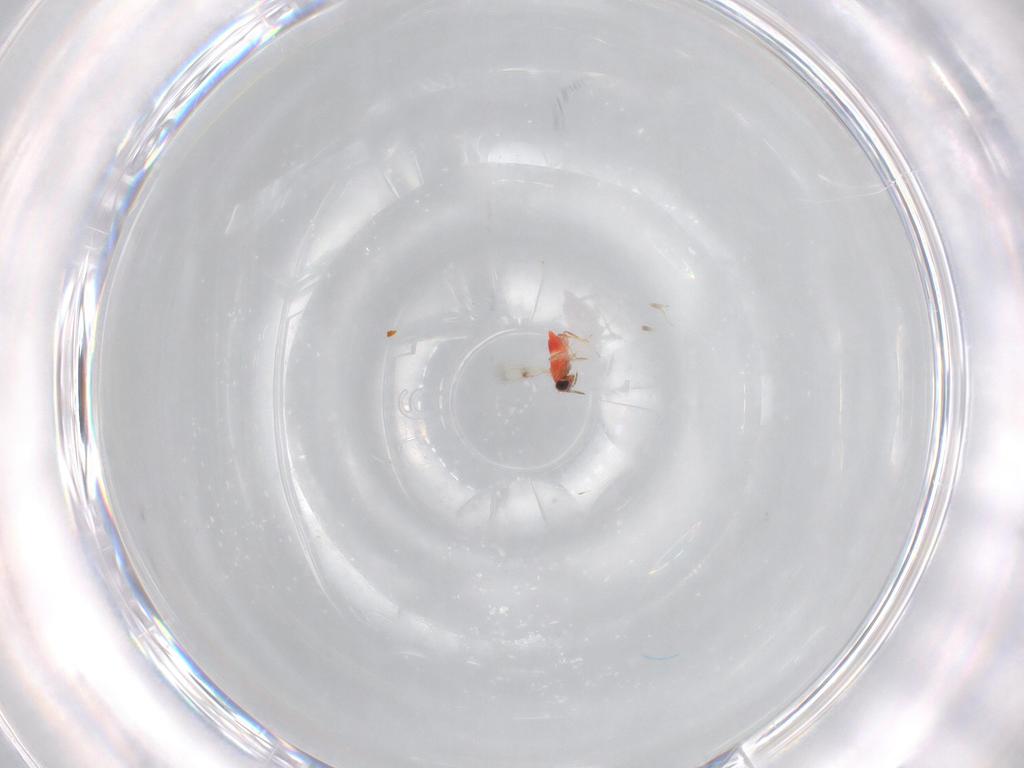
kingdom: Animalia
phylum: Arthropoda
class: Insecta
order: Hymenoptera
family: Trichogrammatidae
